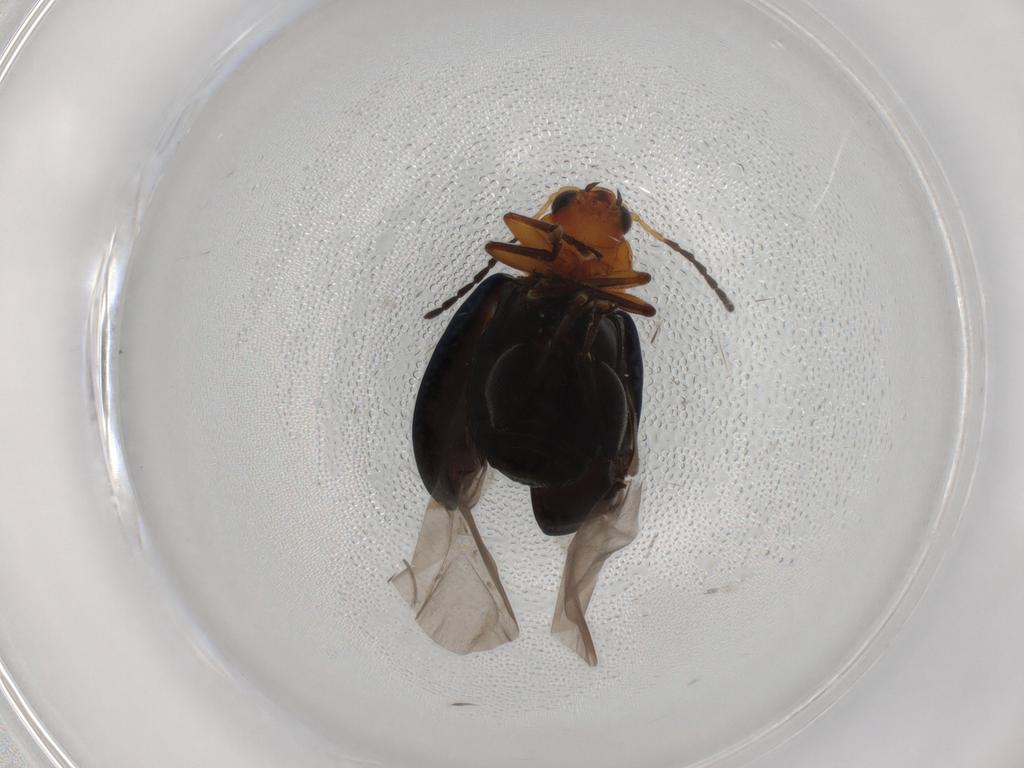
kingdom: Animalia
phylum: Arthropoda
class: Insecta
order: Coleoptera
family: Chrysomelidae
